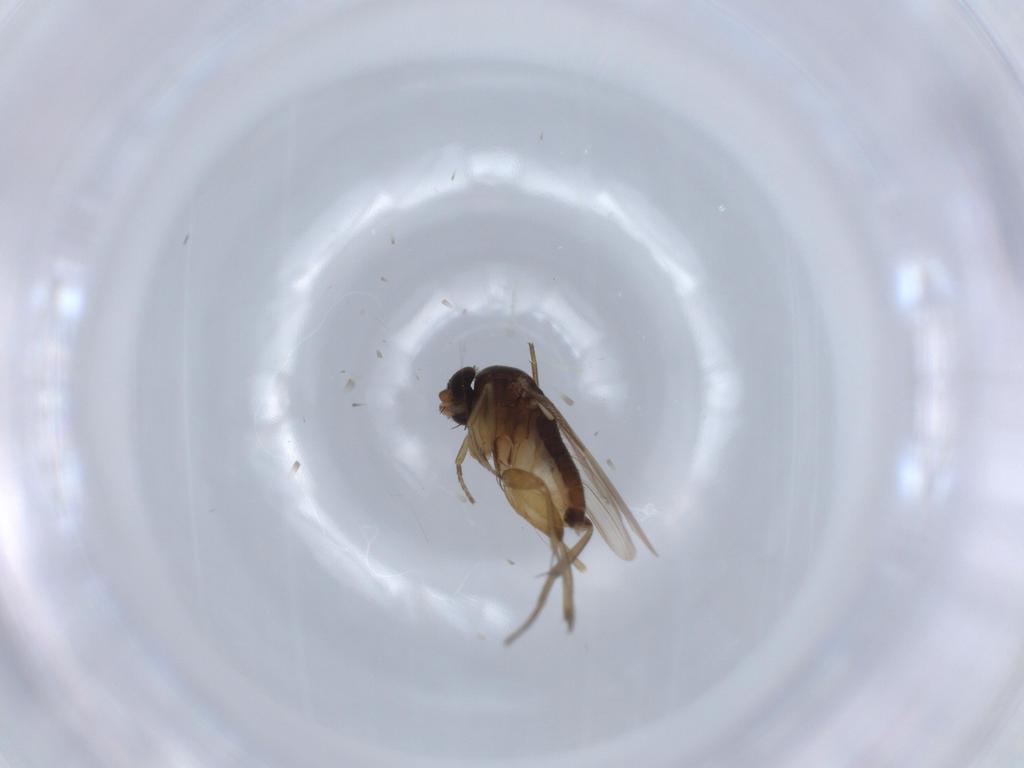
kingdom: Animalia
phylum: Arthropoda
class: Insecta
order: Diptera
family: Phoridae
